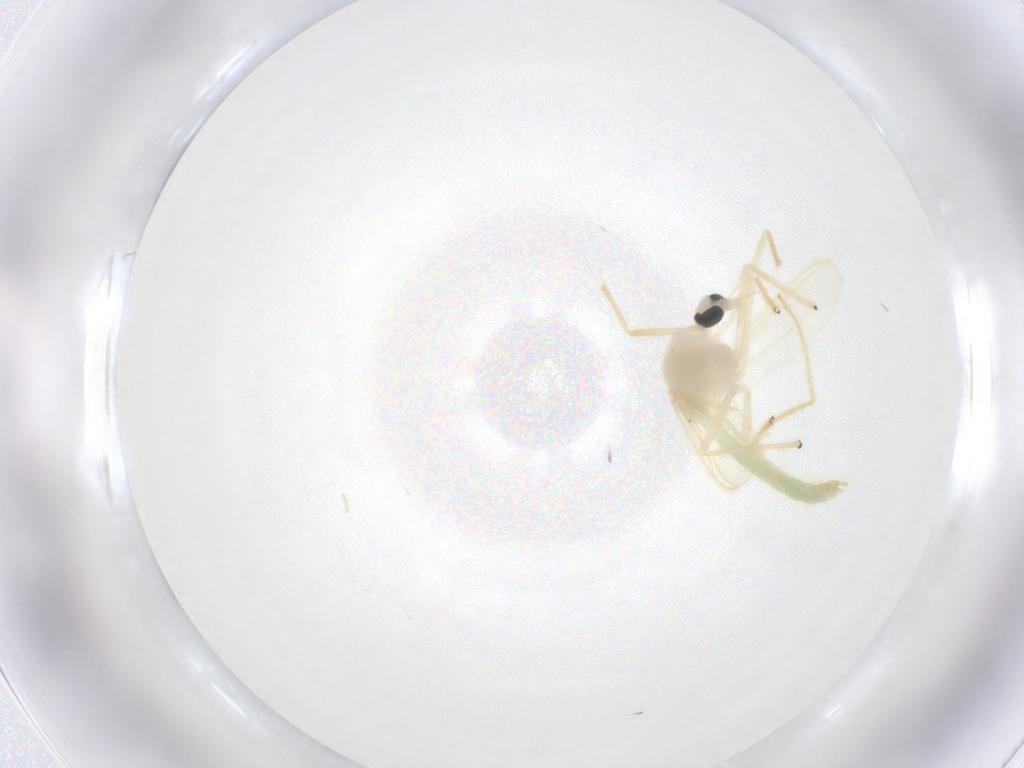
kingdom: Animalia
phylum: Arthropoda
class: Insecta
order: Diptera
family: Chironomidae
